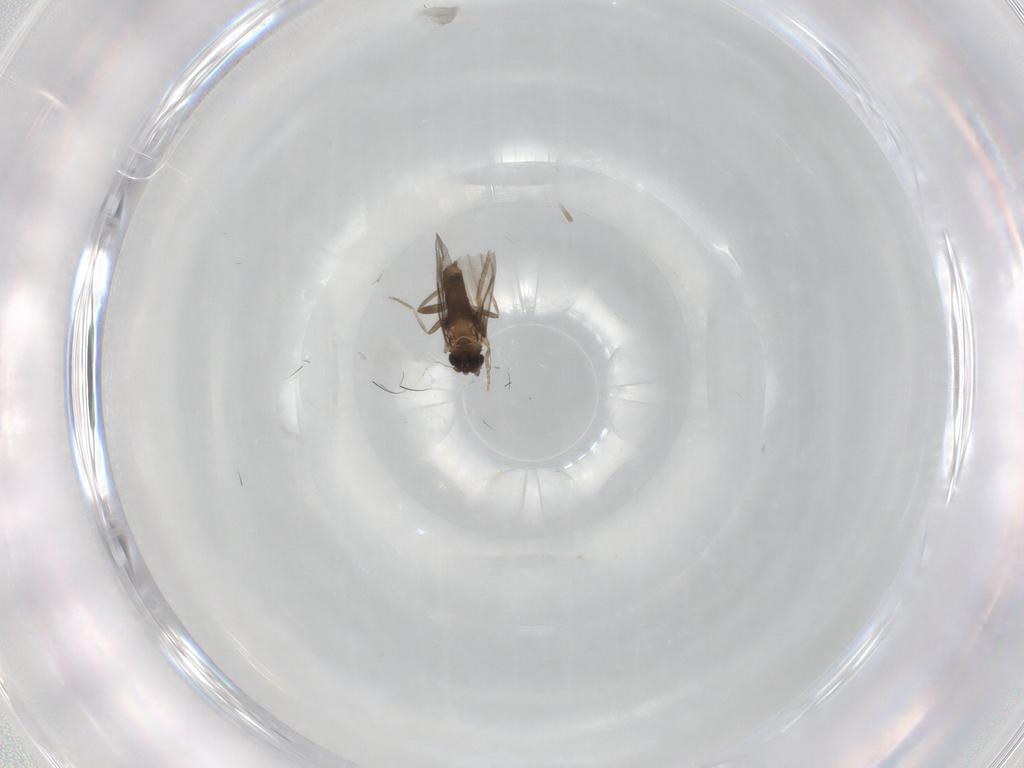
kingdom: Animalia
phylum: Arthropoda
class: Insecta
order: Diptera
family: Tabanidae
